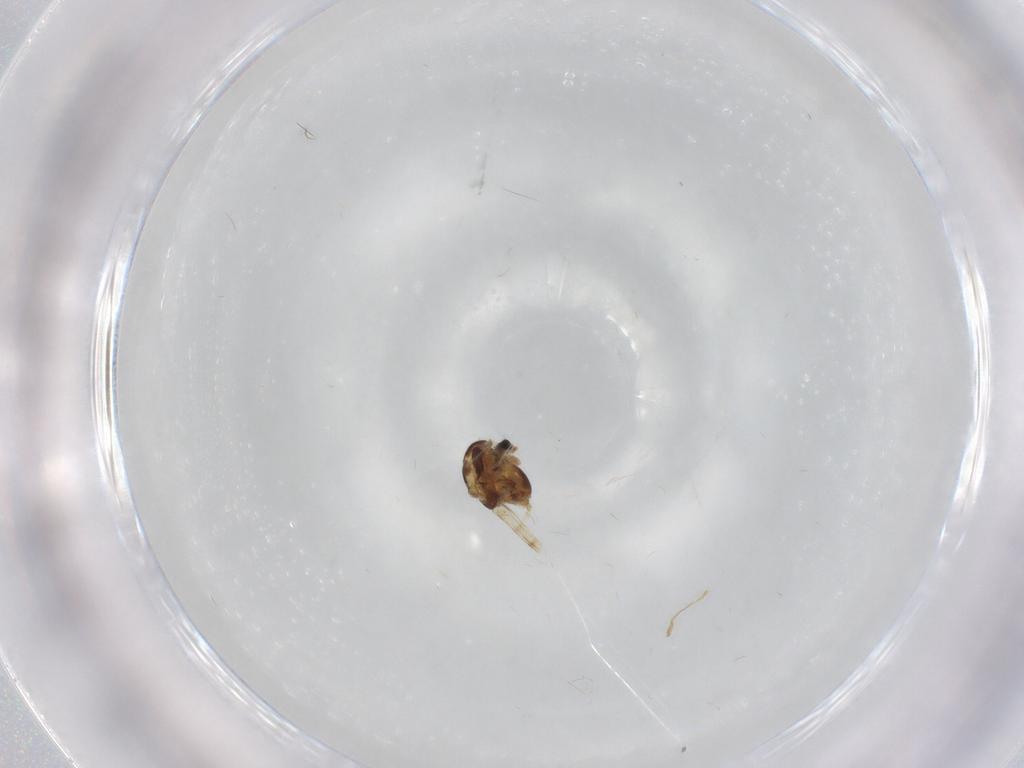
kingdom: Animalia
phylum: Arthropoda
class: Insecta
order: Diptera
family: Chironomidae
